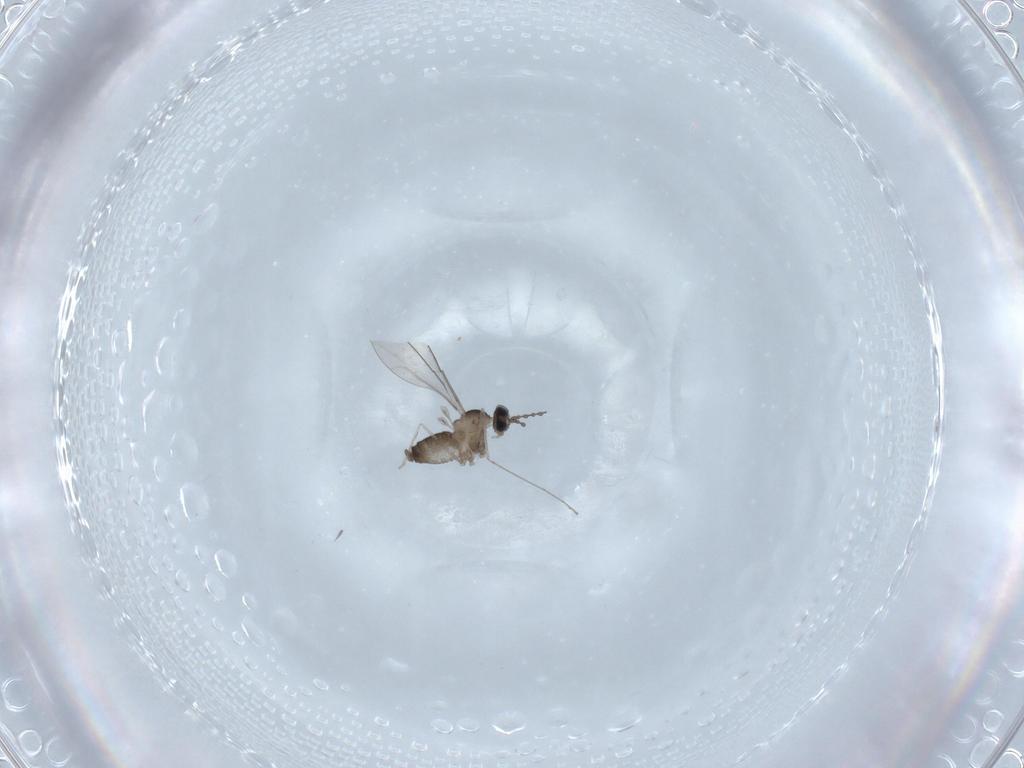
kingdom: Animalia
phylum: Arthropoda
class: Insecta
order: Diptera
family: Cecidomyiidae
